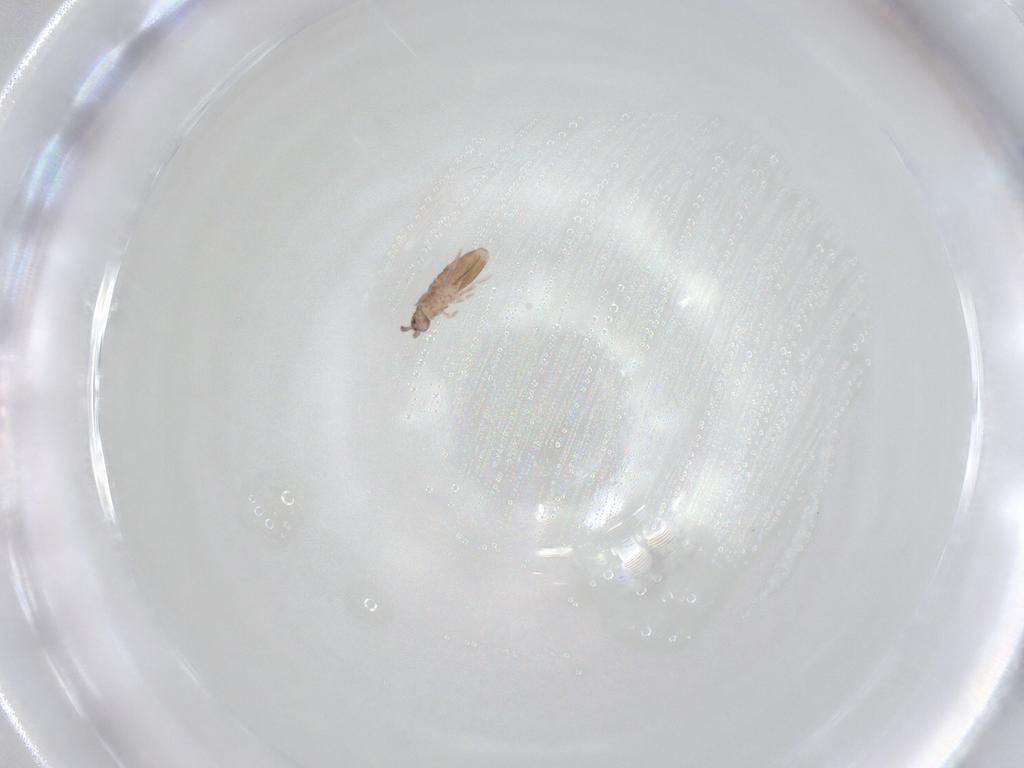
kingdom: Animalia
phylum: Arthropoda
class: Collembola
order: Entomobryomorpha
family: Entomobryidae
